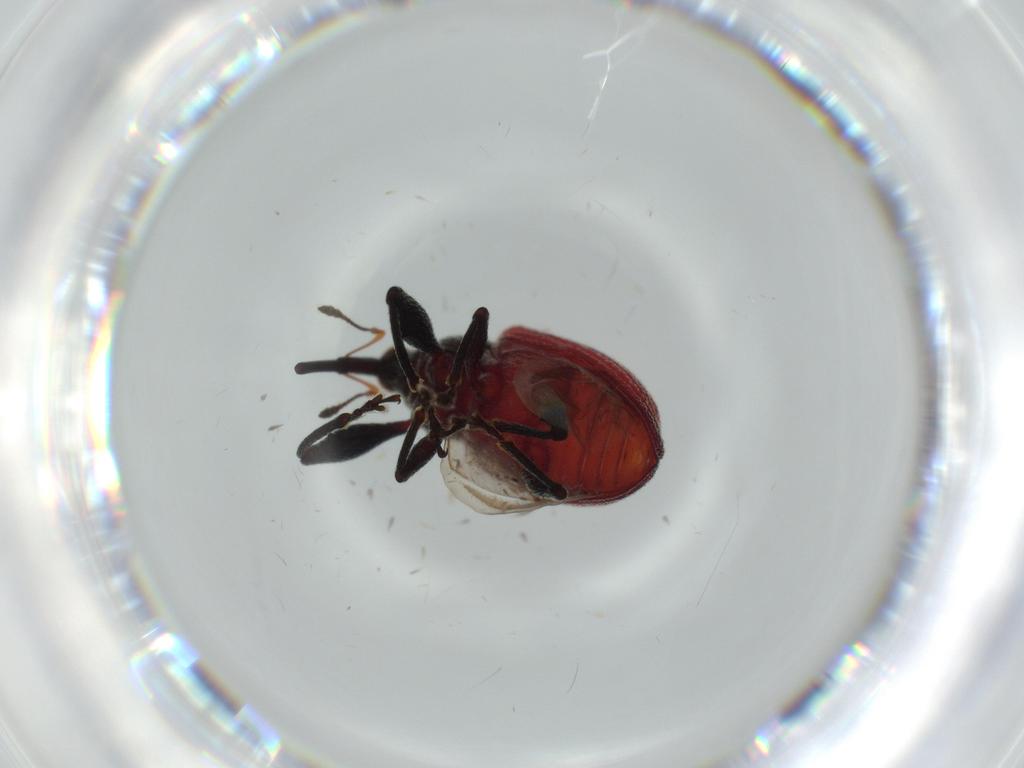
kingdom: Animalia
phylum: Arthropoda
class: Insecta
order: Coleoptera
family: Curculionidae
